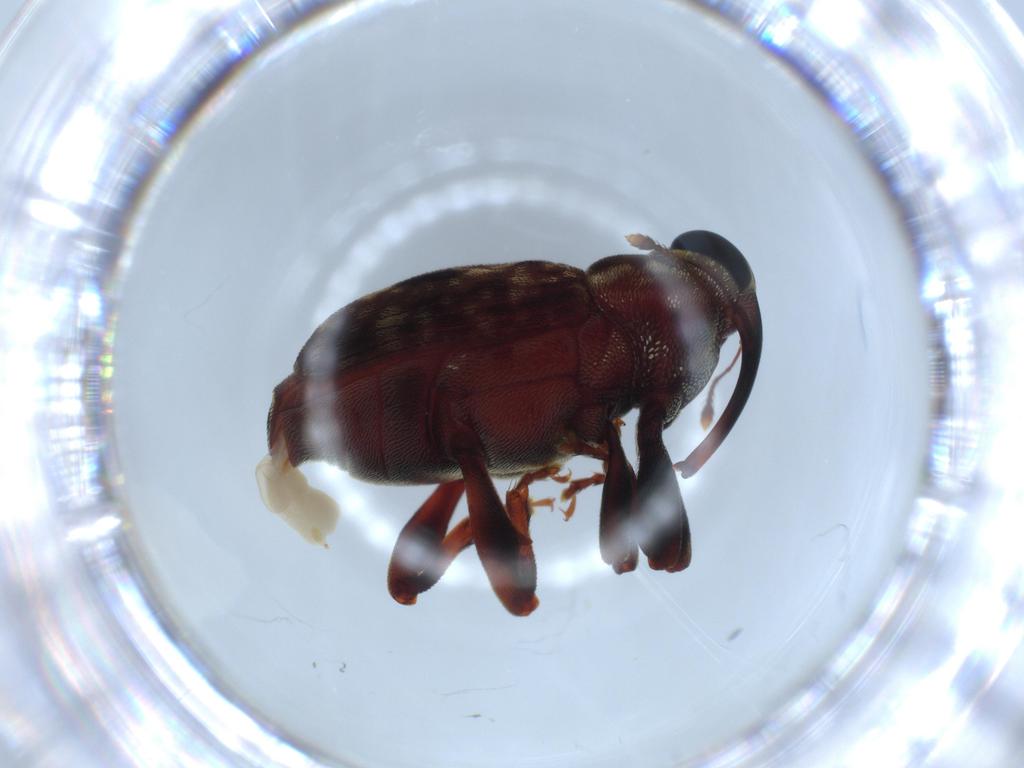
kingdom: Animalia
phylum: Arthropoda
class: Insecta
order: Coleoptera
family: Curculionidae
